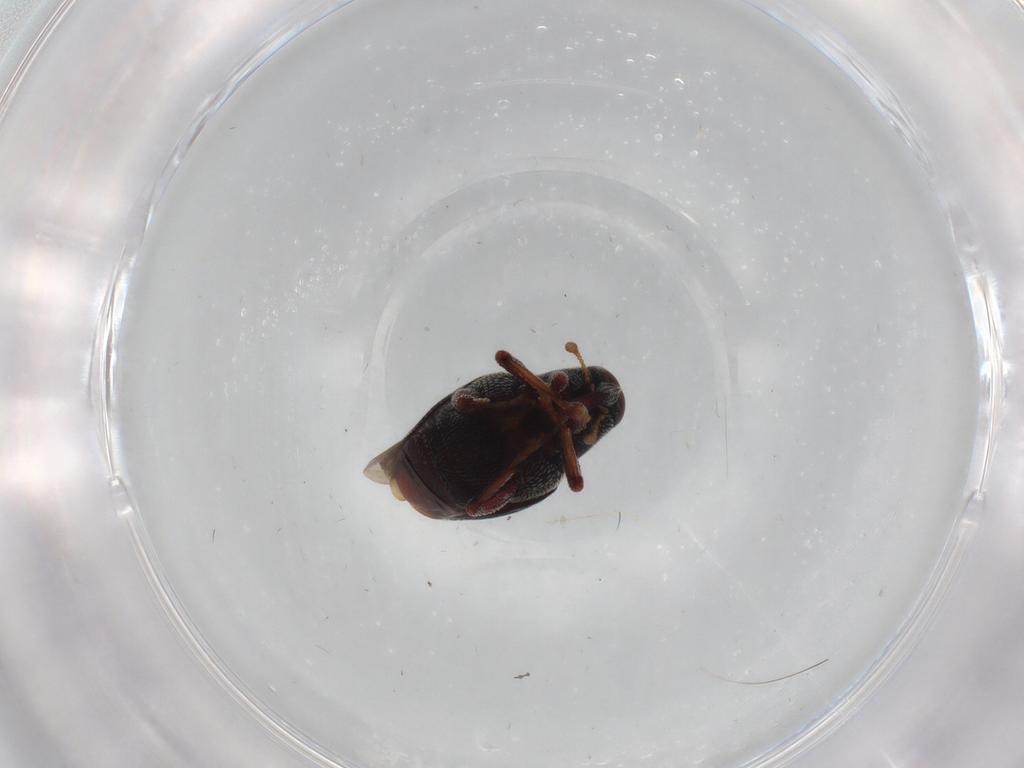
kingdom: Animalia
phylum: Arthropoda
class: Insecta
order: Coleoptera
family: Curculionidae
